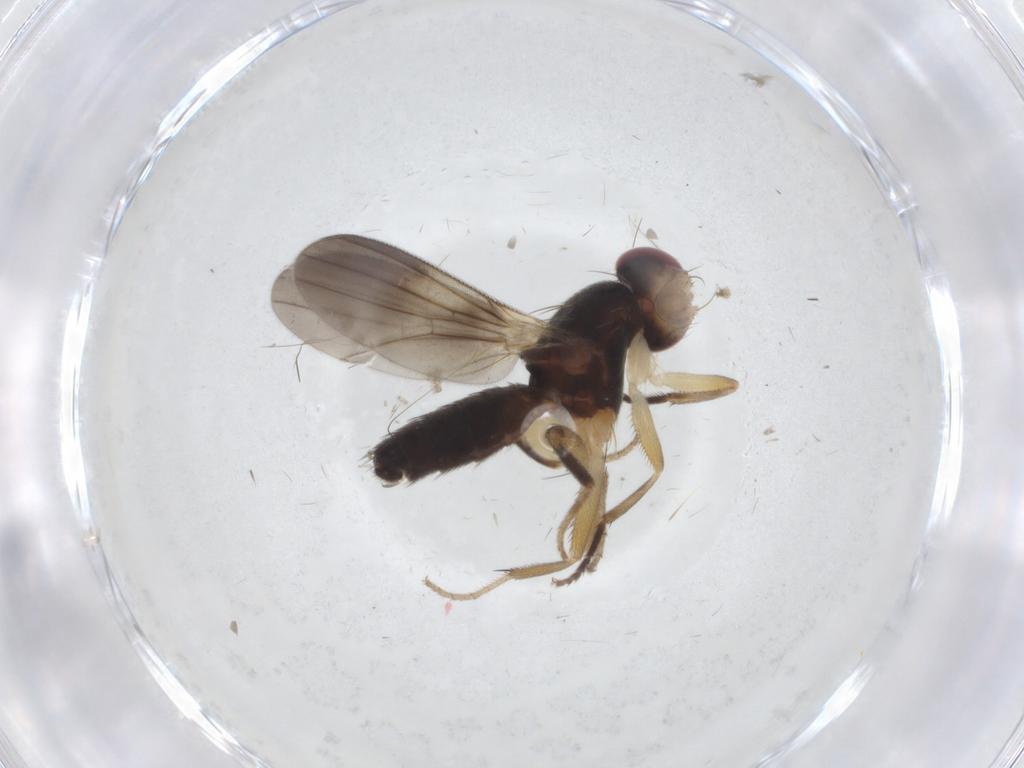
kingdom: Animalia
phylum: Arthropoda
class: Insecta
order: Diptera
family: Clusiidae
